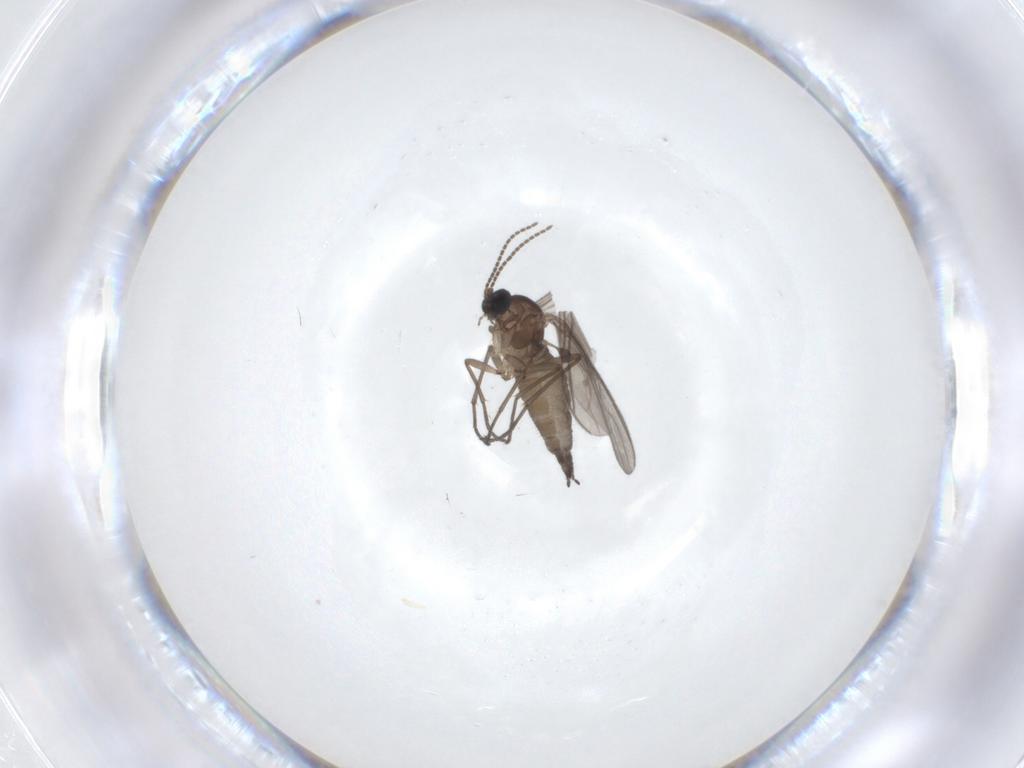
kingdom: Animalia
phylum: Arthropoda
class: Insecta
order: Diptera
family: Sciaridae
